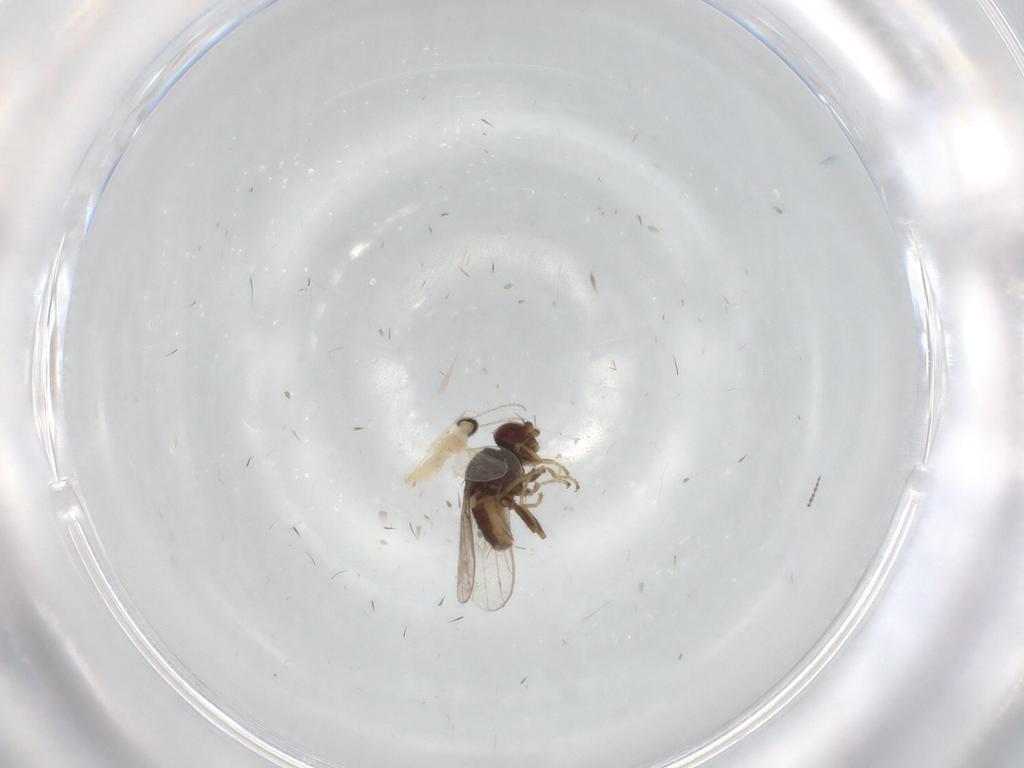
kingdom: Animalia
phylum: Arthropoda
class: Insecta
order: Diptera
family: Chloropidae
